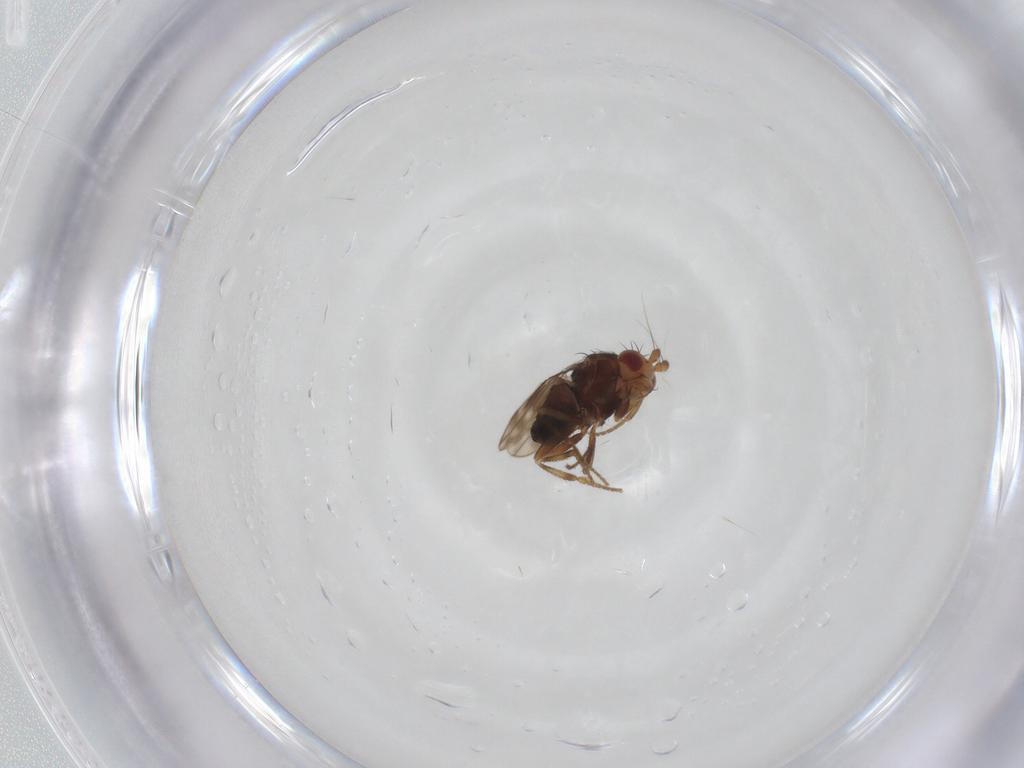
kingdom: Animalia
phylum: Arthropoda
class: Insecta
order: Diptera
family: Sphaeroceridae
